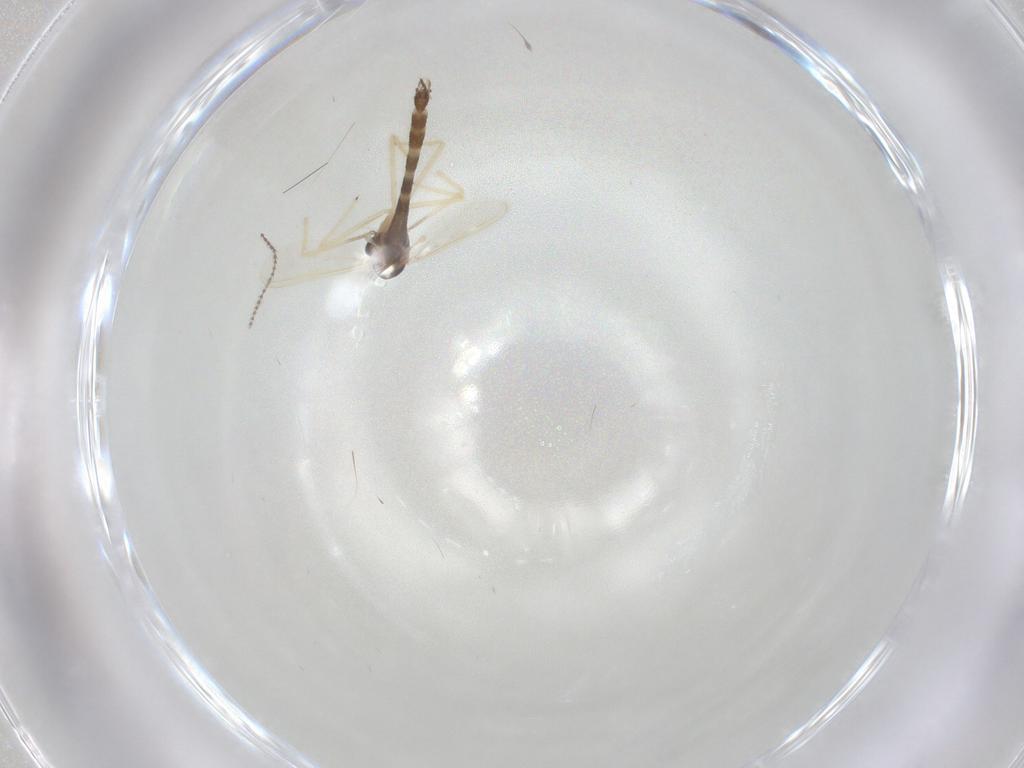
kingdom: Animalia
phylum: Arthropoda
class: Insecta
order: Diptera
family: Chironomidae
